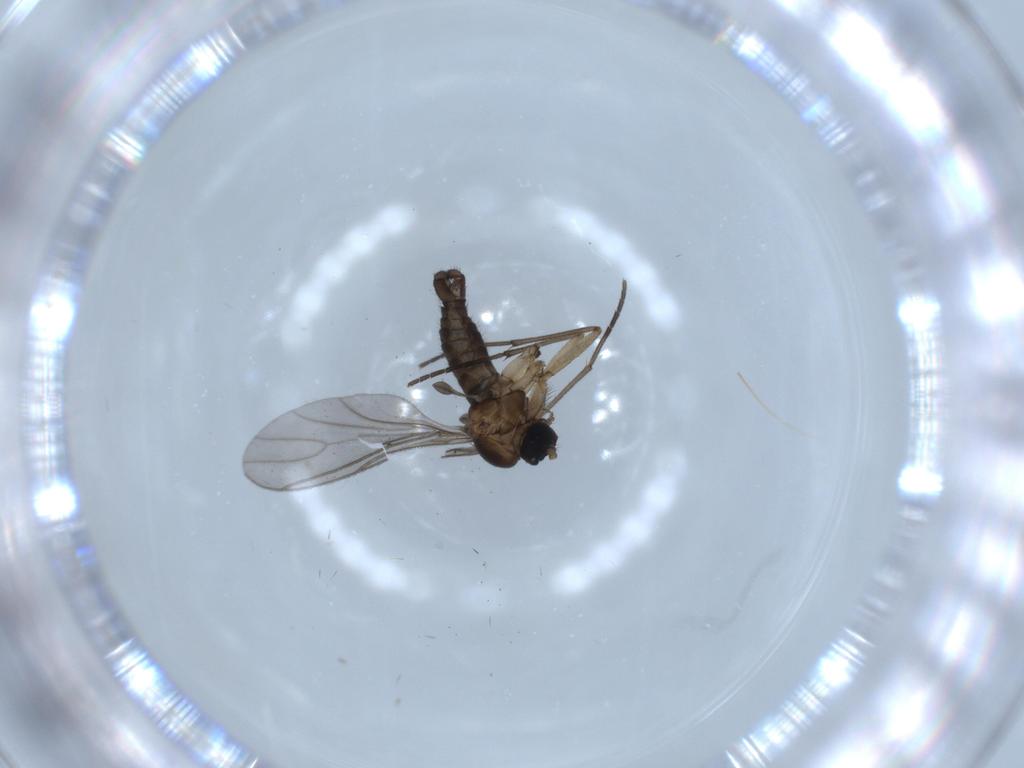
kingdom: Animalia
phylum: Arthropoda
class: Insecta
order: Diptera
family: Sciaridae
